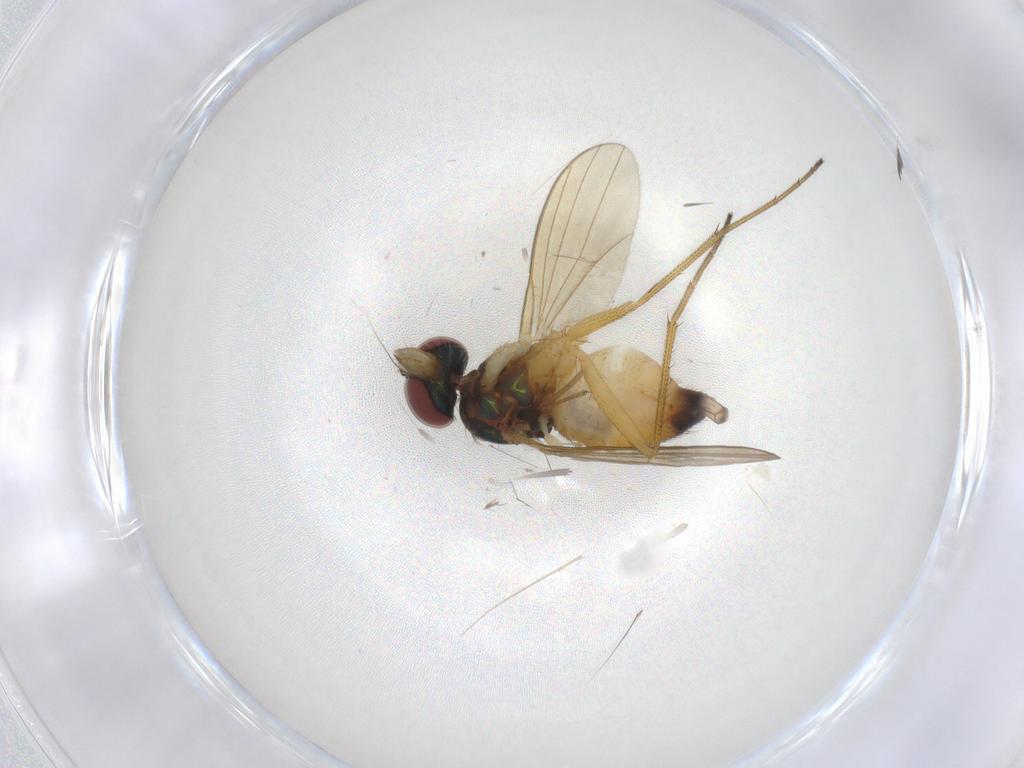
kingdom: Animalia
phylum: Arthropoda
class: Insecta
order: Diptera
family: Dolichopodidae
